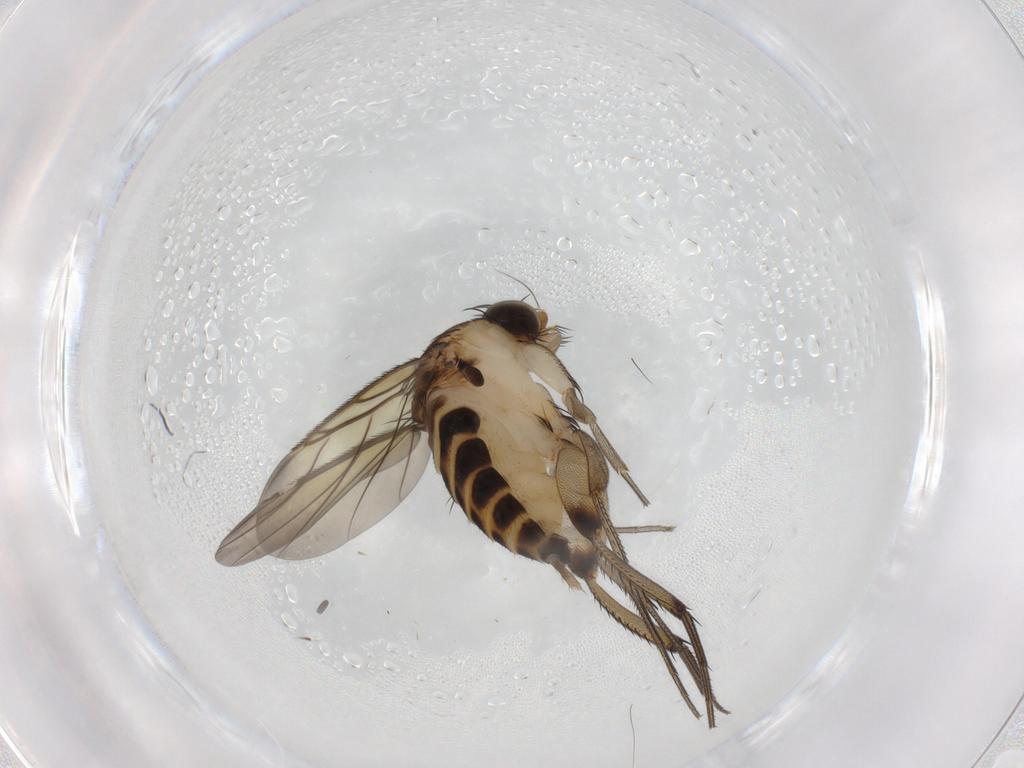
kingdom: Animalia
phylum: Arthropoda
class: Insecta
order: Diptera
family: Phoridae
